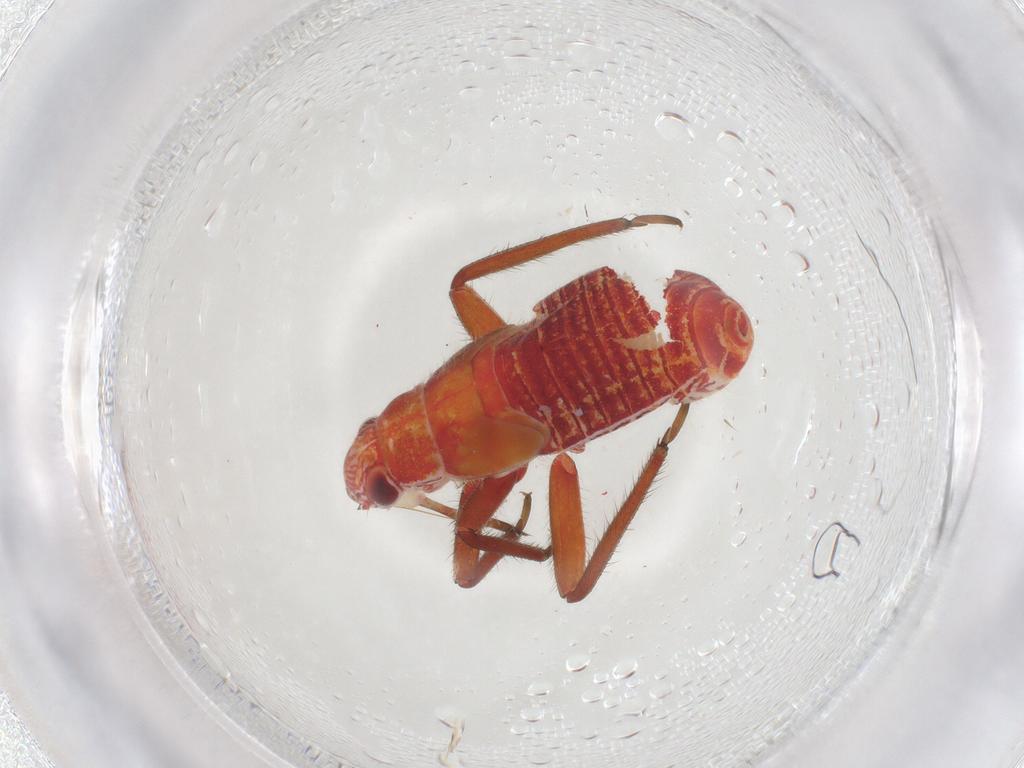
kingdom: Animalia
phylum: Arthropoda
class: Insecta
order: Hemiptera
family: Miridae
